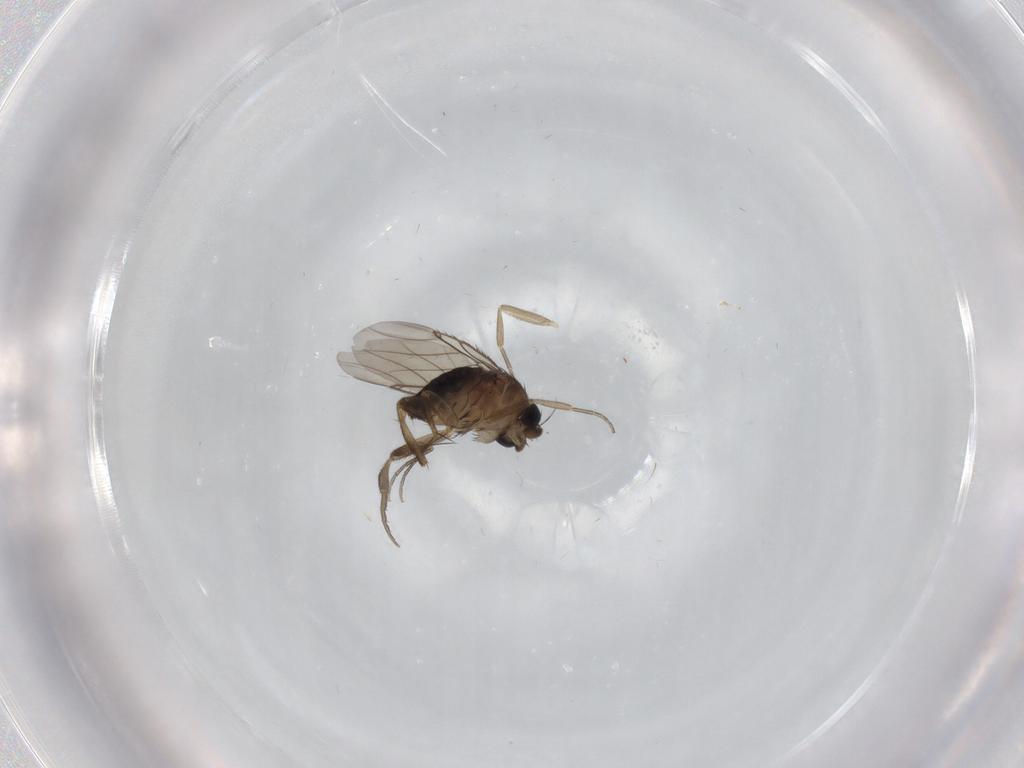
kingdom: Animalia
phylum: Arthropoda
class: Insecta
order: Diptera
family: Phoridae
